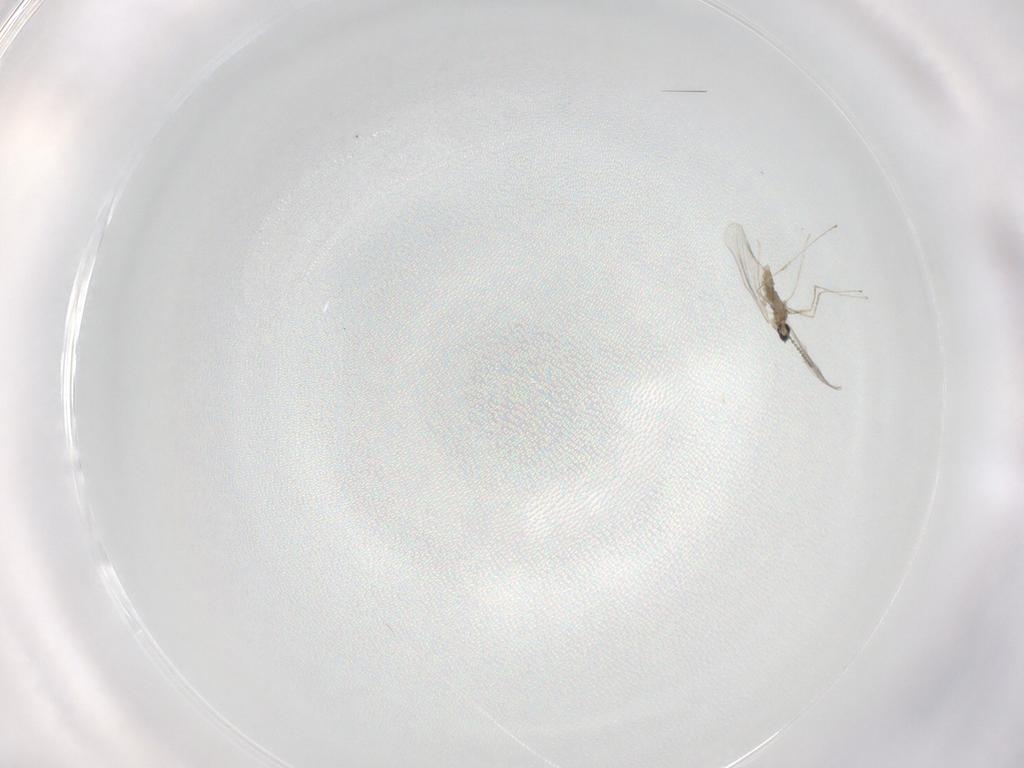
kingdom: Animalia
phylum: Arthropoda
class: Insecta
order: Diptera
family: Cecidomyiidae
